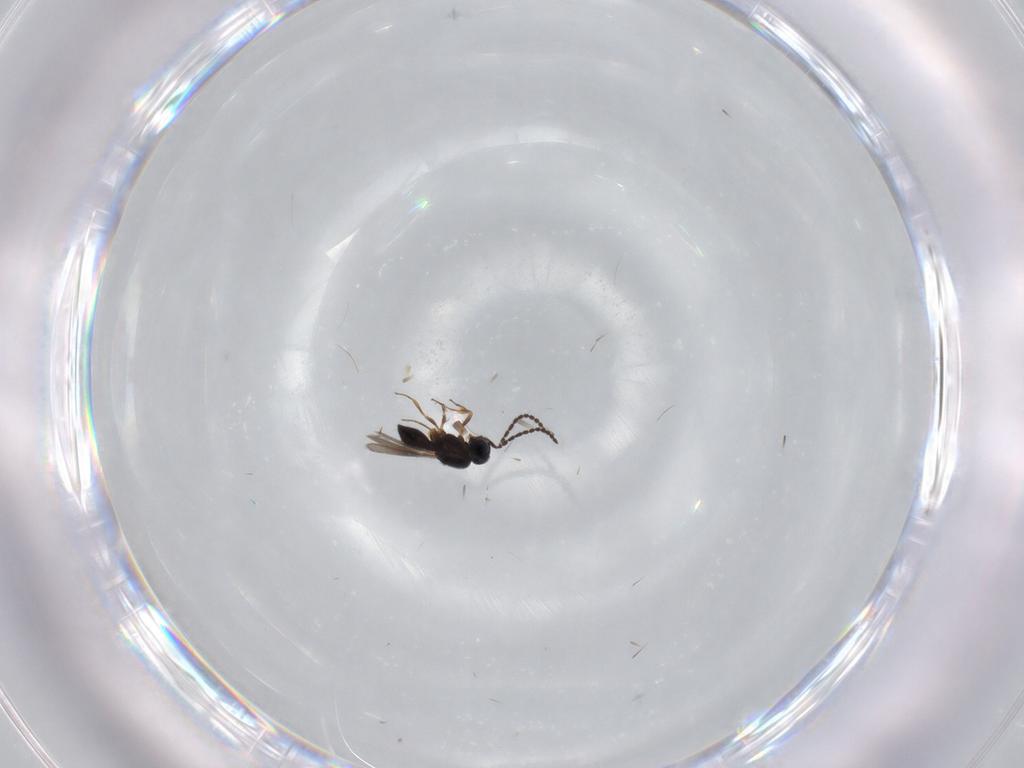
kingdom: Animalia
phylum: Arthropoda
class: Insecta
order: Hymenoptera
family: Scelionidae
